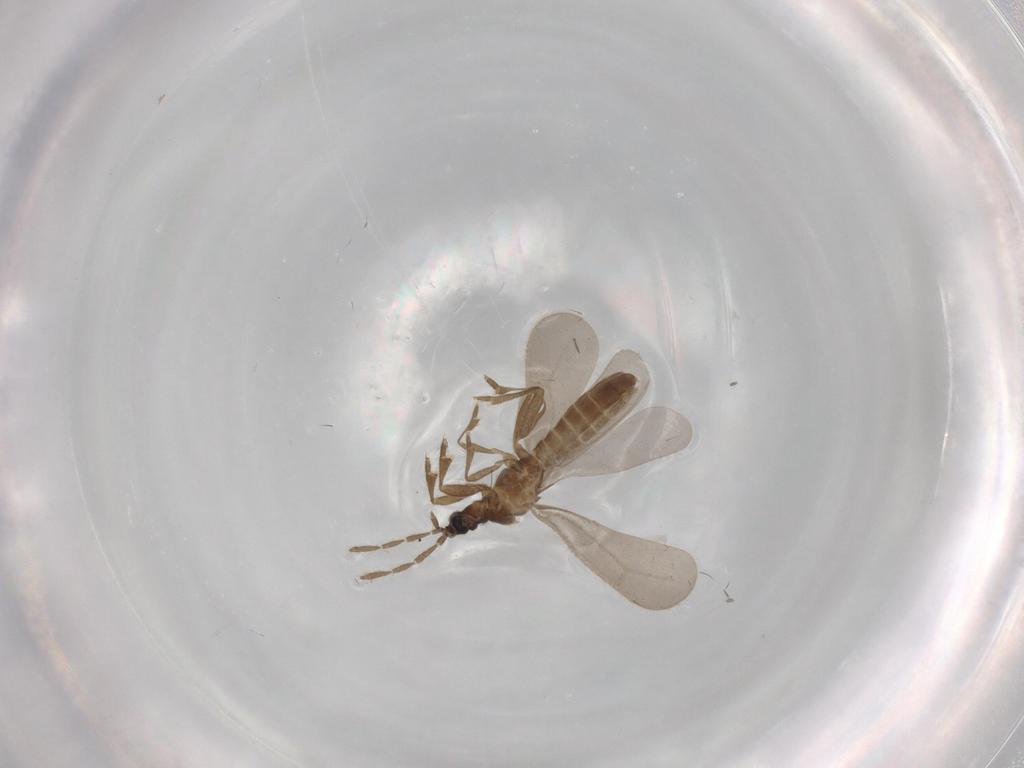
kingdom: Animalia
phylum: Arthropoda
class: Insecta
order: Hemiptera
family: Enicocephalidae
